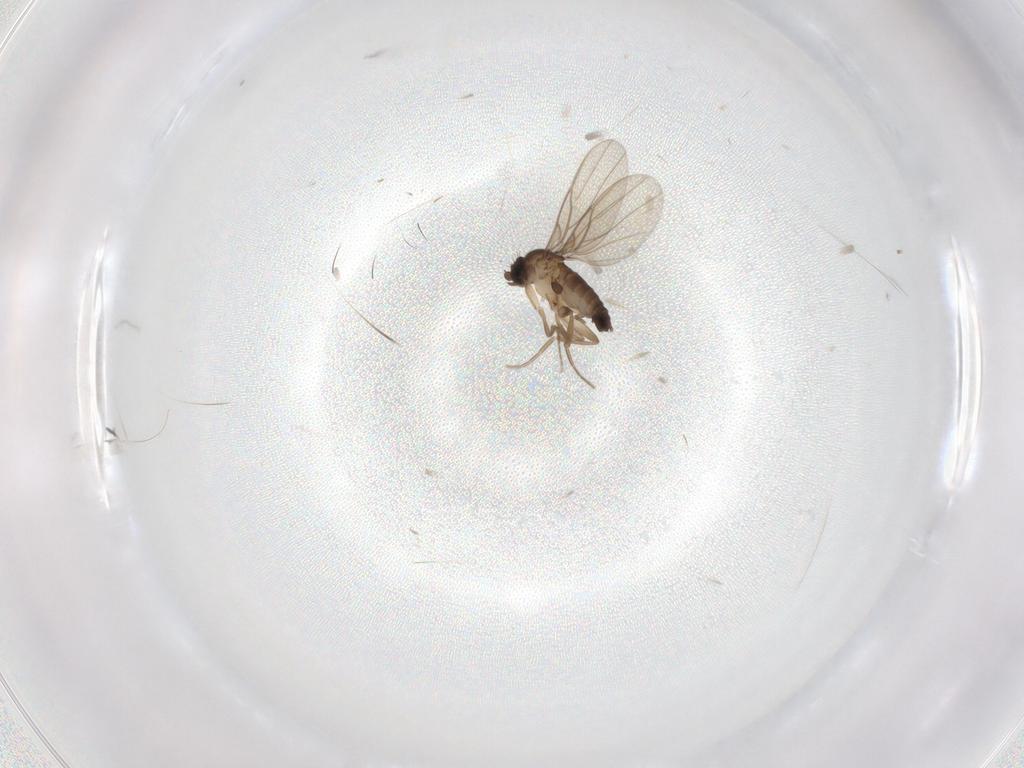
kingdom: Animalia
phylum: Arthropoda
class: Insecta
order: Diptera
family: Phoridae
